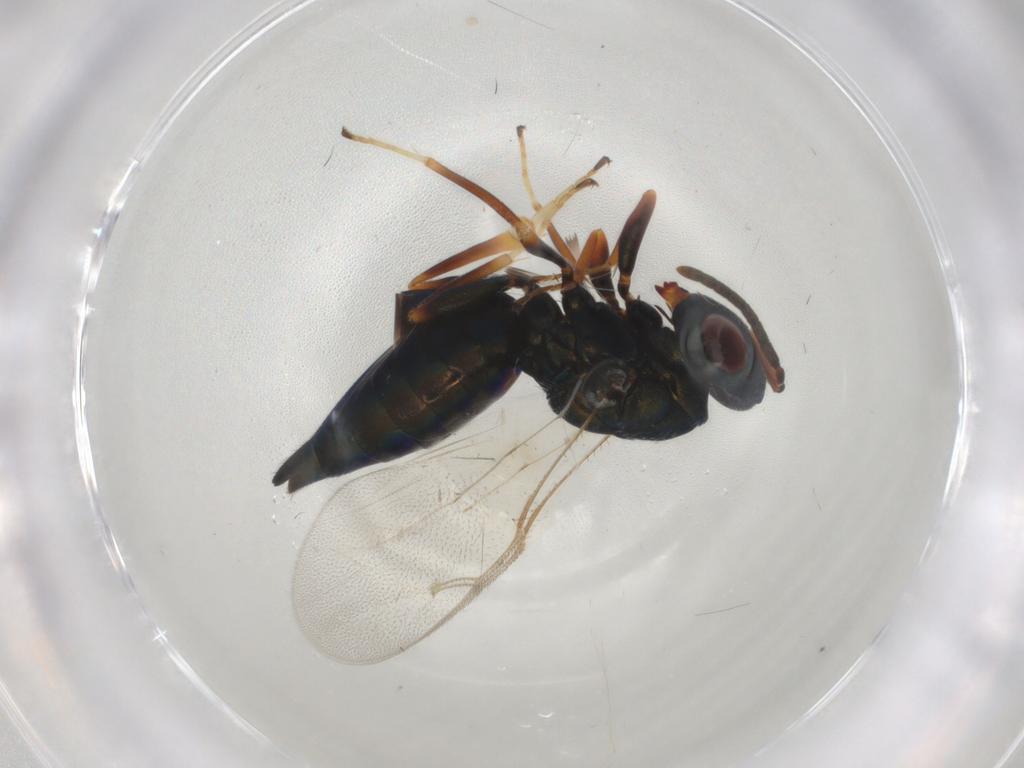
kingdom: Animalia
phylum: Arthropoda
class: Insecta
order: Hymenoptera
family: Pteromalidae
